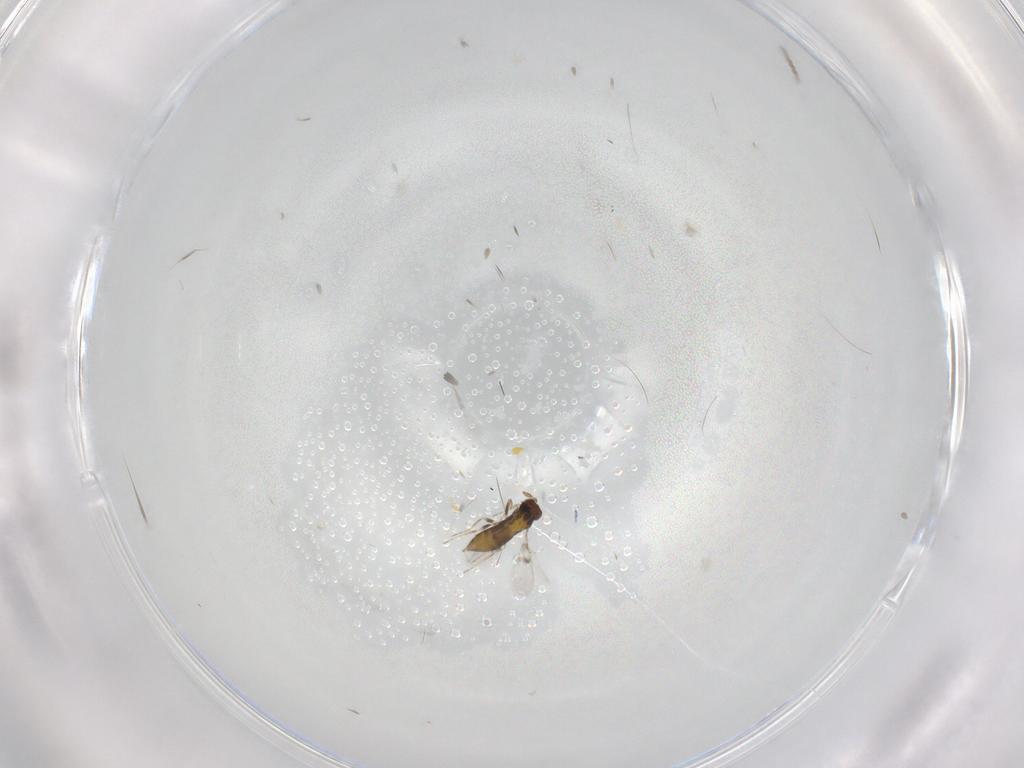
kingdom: Animalia
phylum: Arthropoda
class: Insecta
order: Hymenoptera
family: Trichogrammatidae
